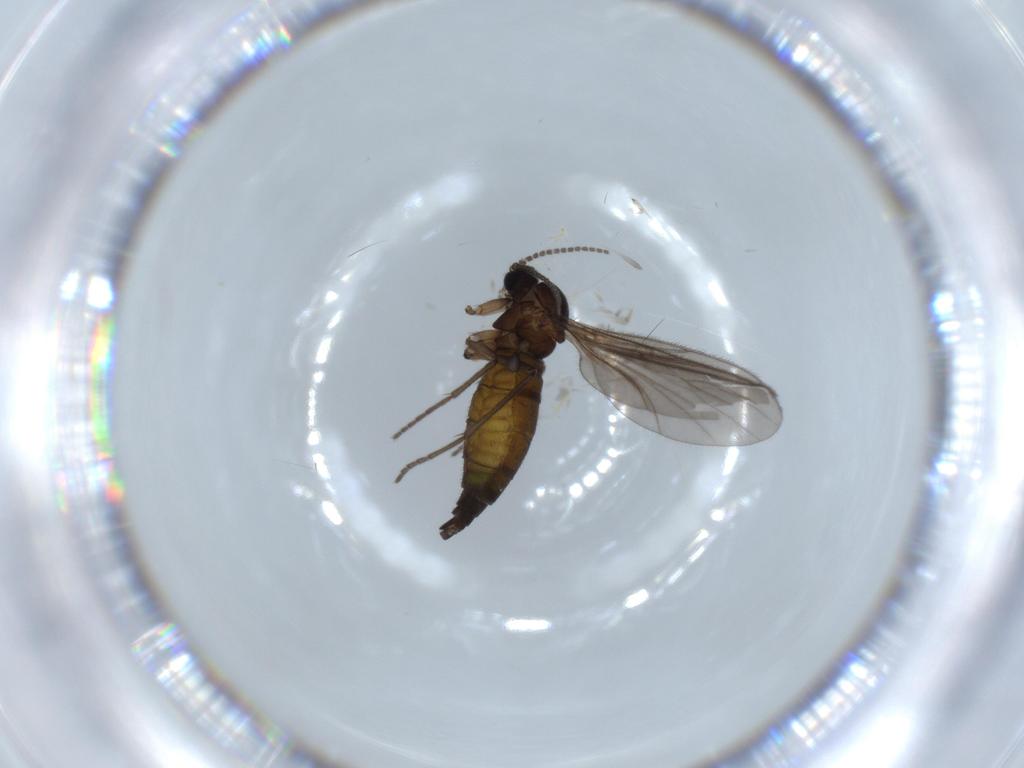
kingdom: Animalia
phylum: Arthropoda
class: Insecta
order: Diptera
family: Sciaridae
